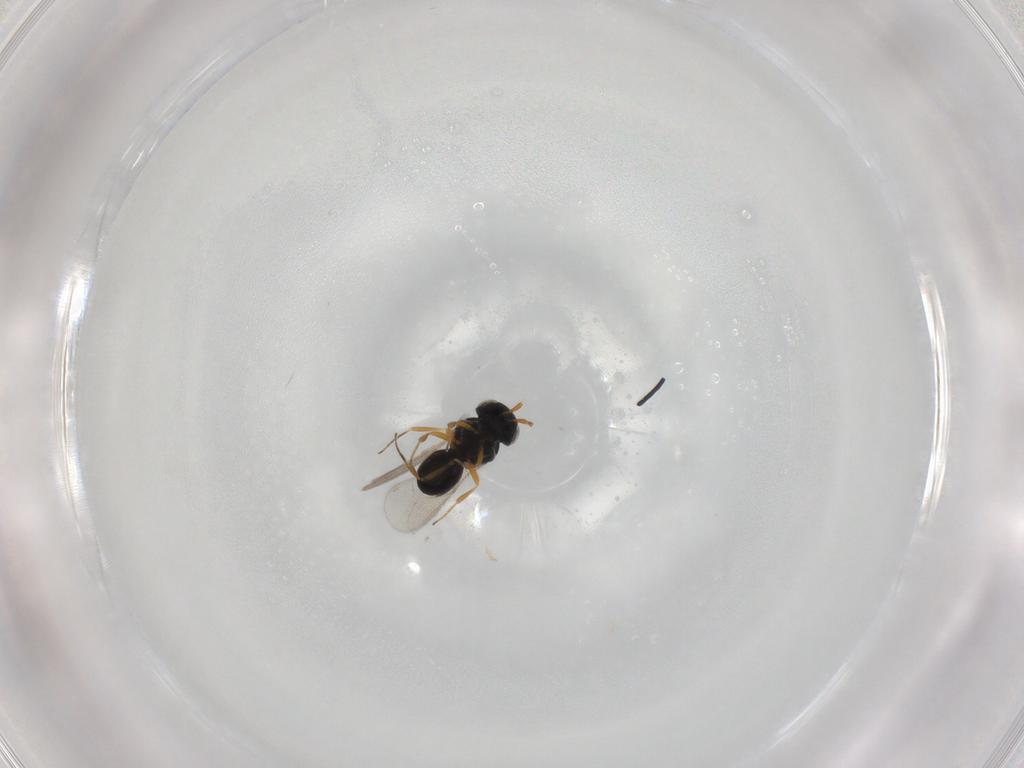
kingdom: Animalia
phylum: Arthropoda
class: Insecta
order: Hymenoptera
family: Scelionidae
